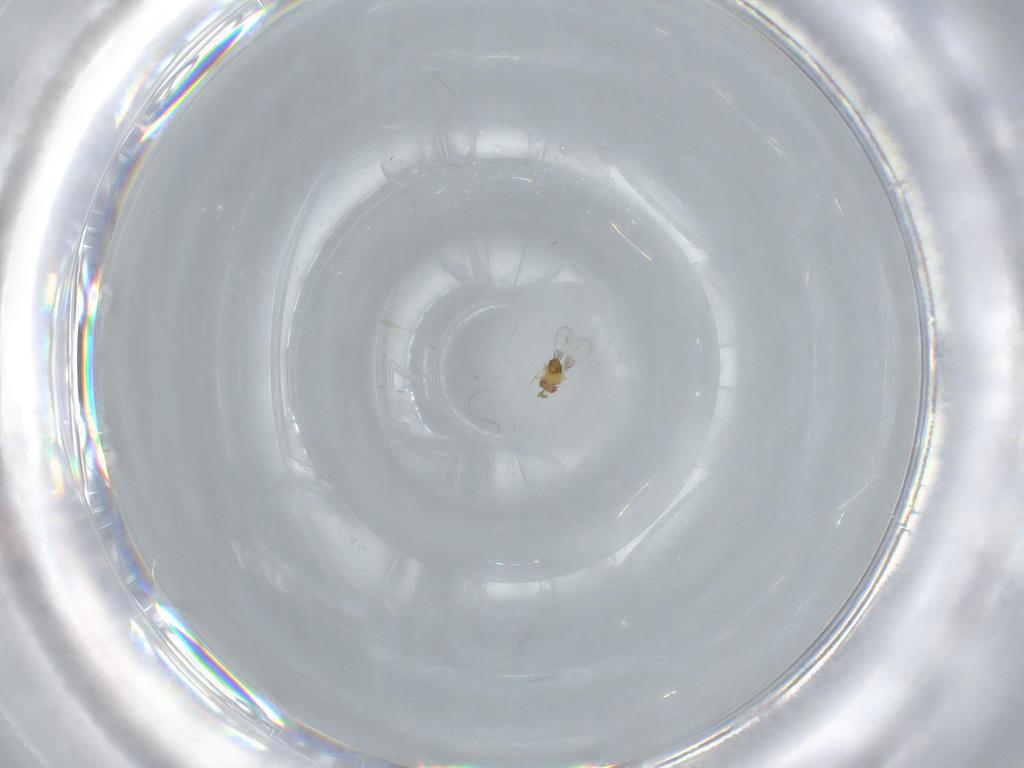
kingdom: Animalia
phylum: Arthropoda
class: Insecta
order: Hymenoptera
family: Trichogrammatidae
